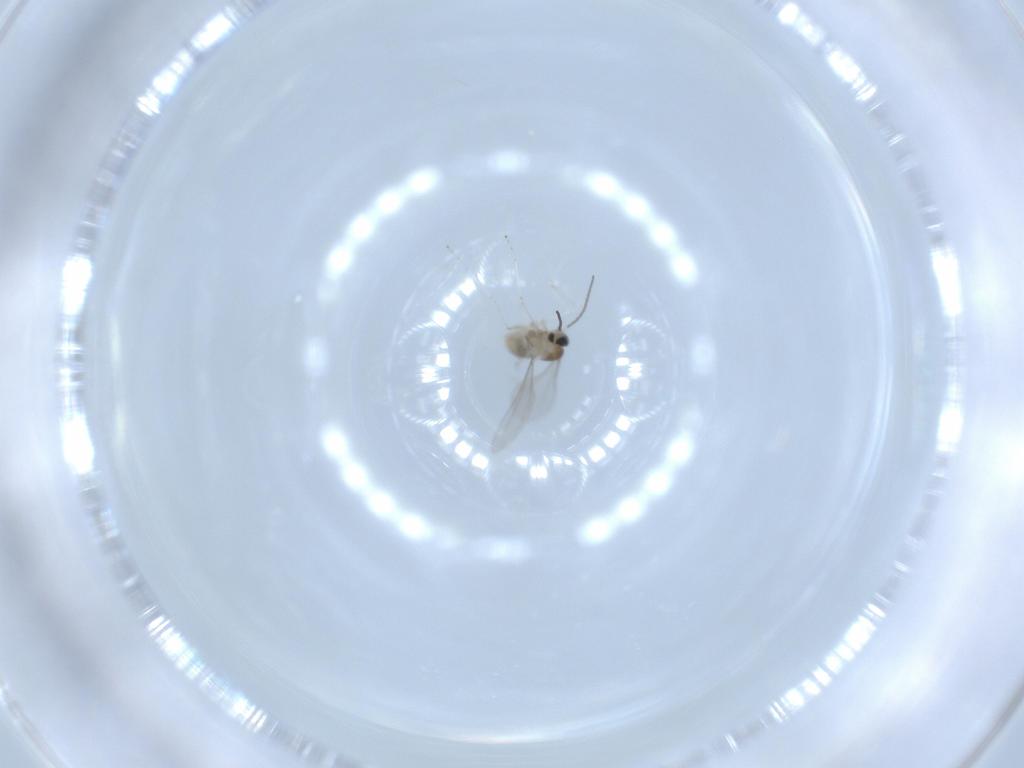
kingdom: Animalia
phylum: Arthropoda
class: Insecta
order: Diptera
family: Cecidomyiidae
